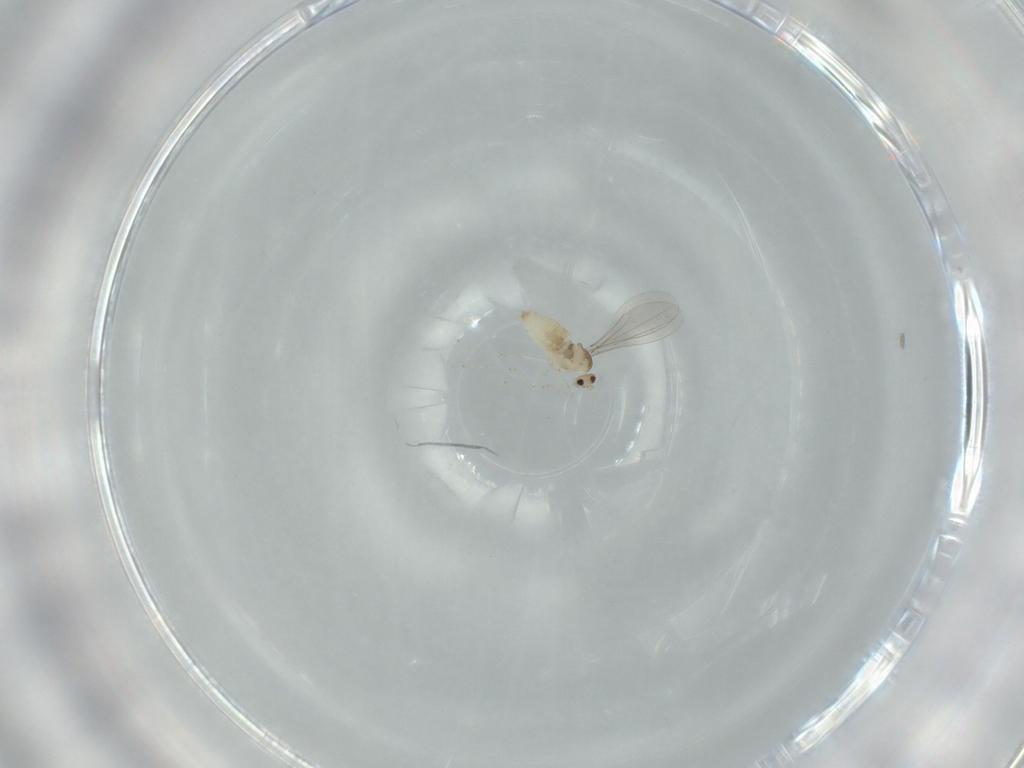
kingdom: Animalia
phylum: Arthropoda
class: Insecta
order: Diptera
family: Cecidomyiidae
